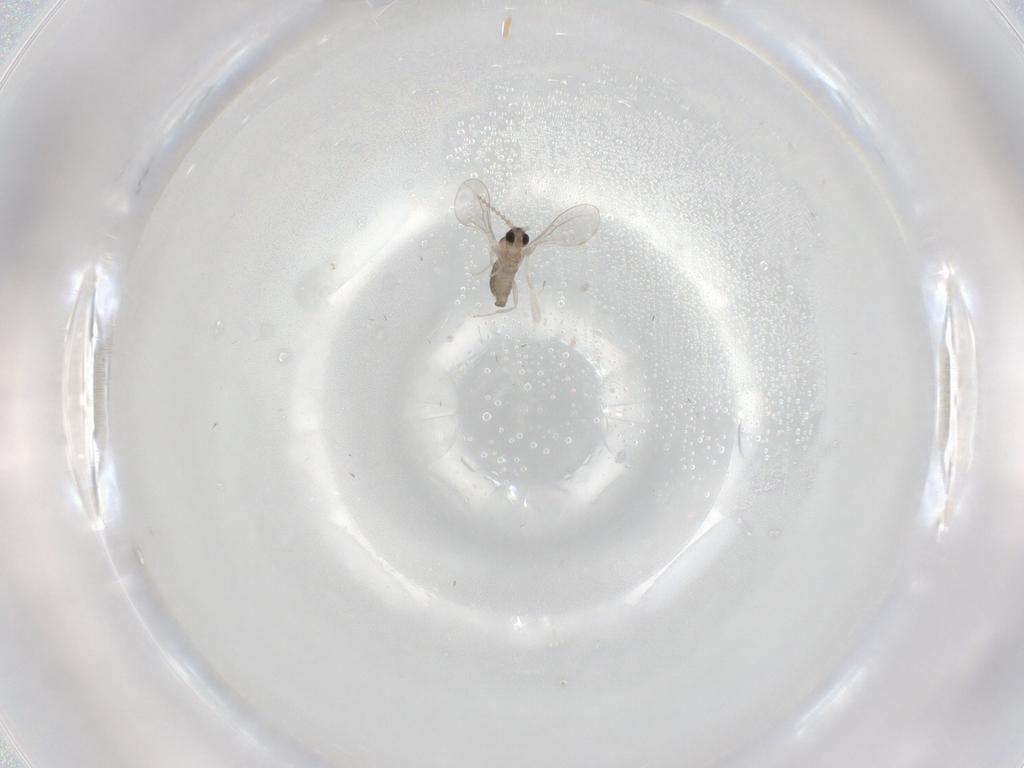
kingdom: Animalia
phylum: Arthropoda
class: Insecta
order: Diptera
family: Cecidomyiidae
